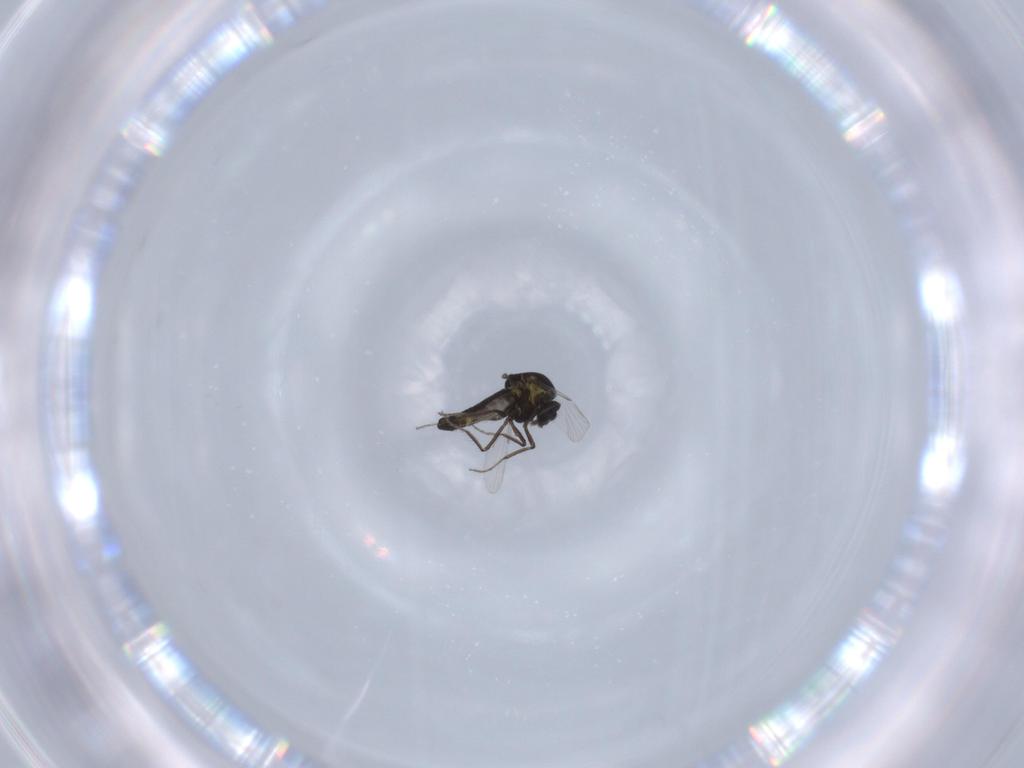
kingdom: Animalia
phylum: Arthropoda
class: Insecta
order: Diptera
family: Ceratopogonidae
